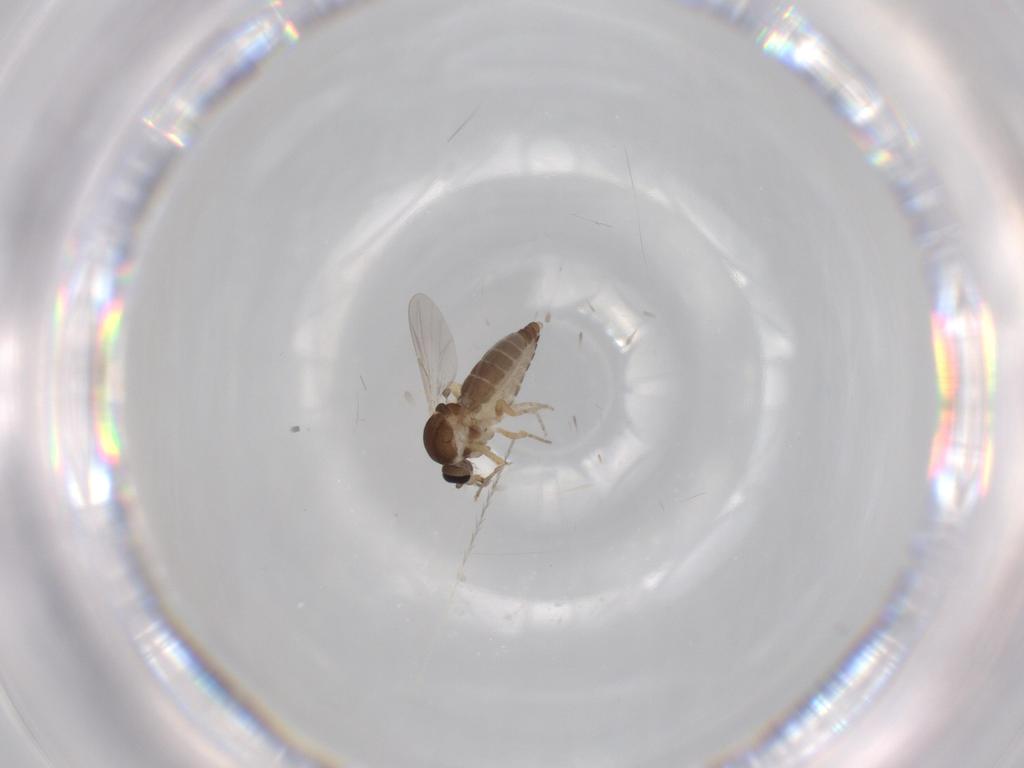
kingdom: Animalia
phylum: Arthropoda
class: Insecta
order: Diptera
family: Ceratopogonidae
